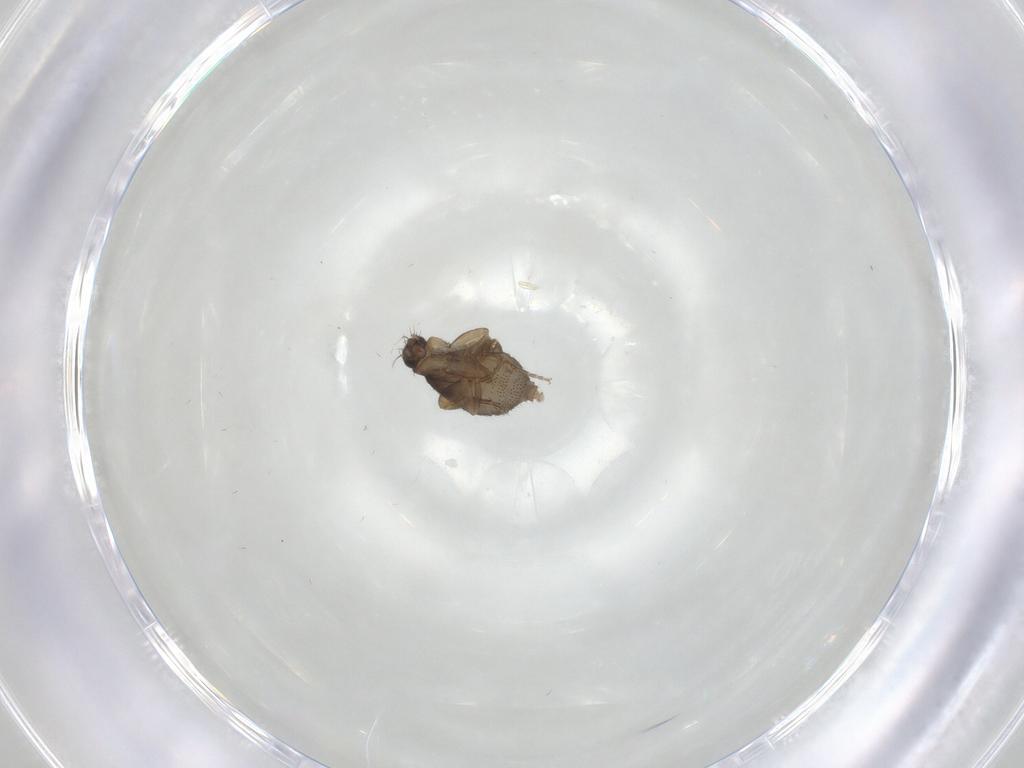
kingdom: Animalia
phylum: Arthropoda
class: Insecta
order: Diptera
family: Phoridae
